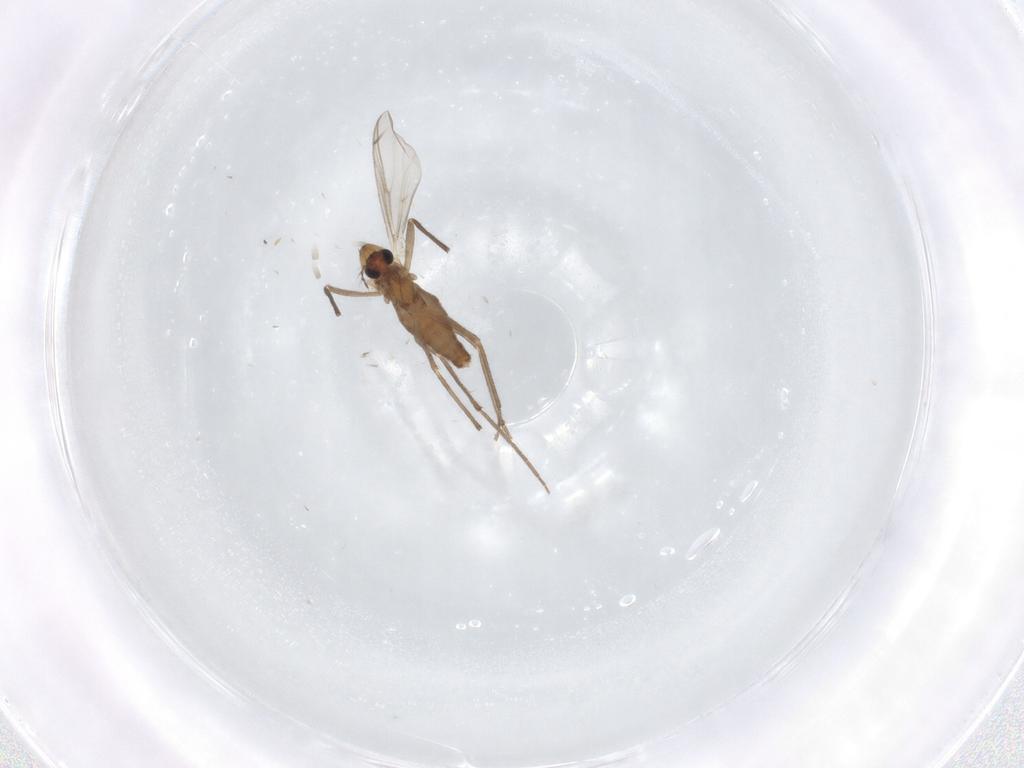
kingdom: Animalia
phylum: Arthropoda
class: Insecta
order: Diptera
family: Chironomidae
